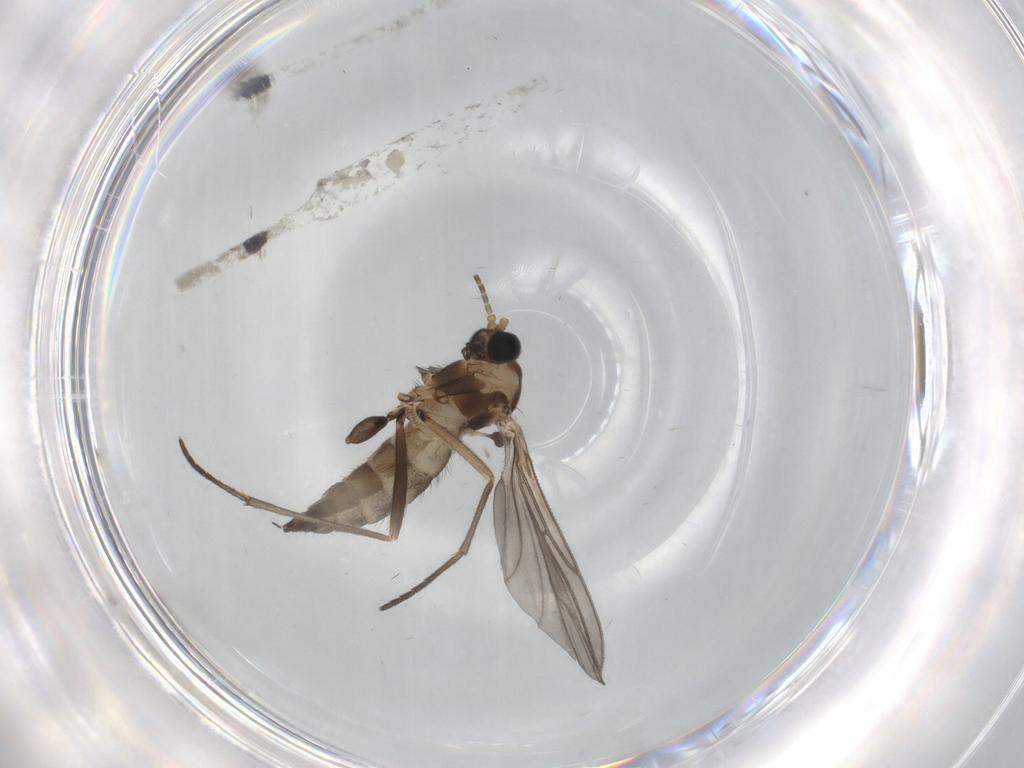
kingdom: Animalia
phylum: Arthropoda
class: Insecta
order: Diptera
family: Sciaridae
